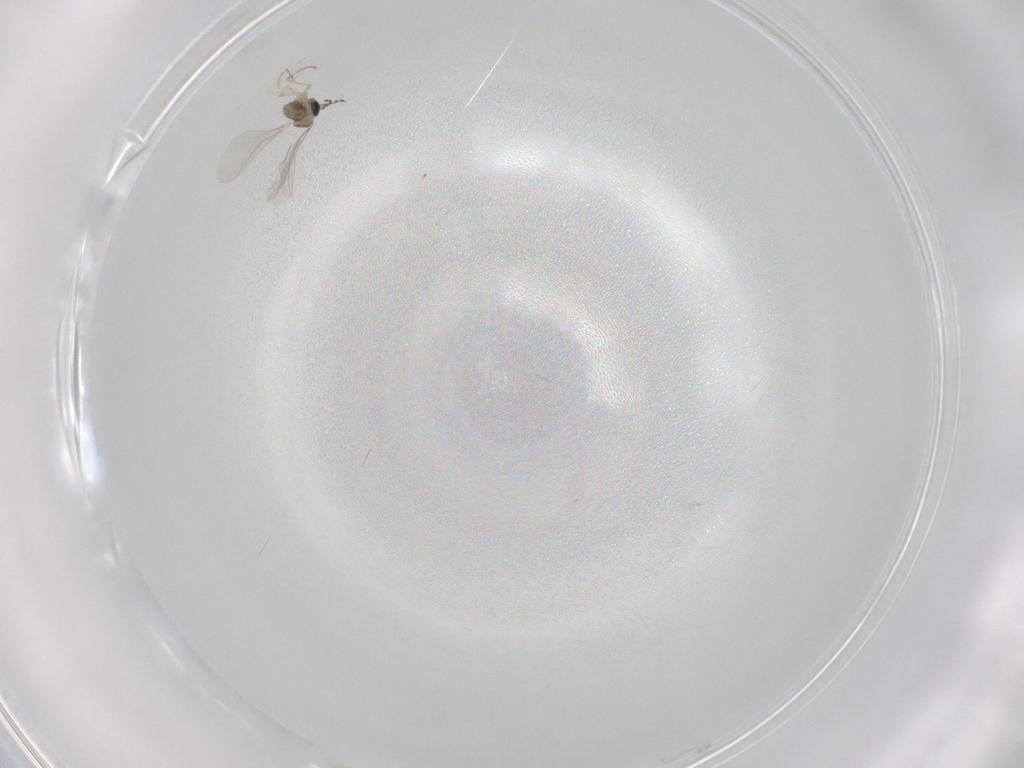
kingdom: Animalia
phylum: Arthropoda
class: Insecta
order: Diptera
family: Cecidomyiidae
